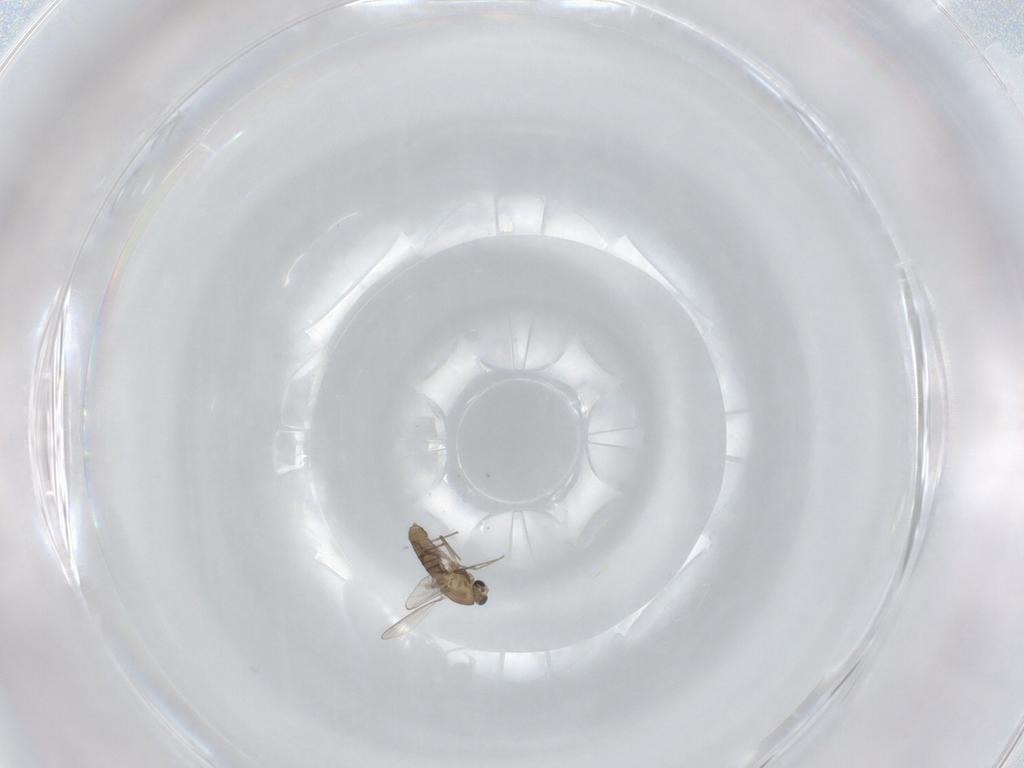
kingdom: Animalia
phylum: Arthropoda
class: Insecta
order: Diptera
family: Chironomidae
